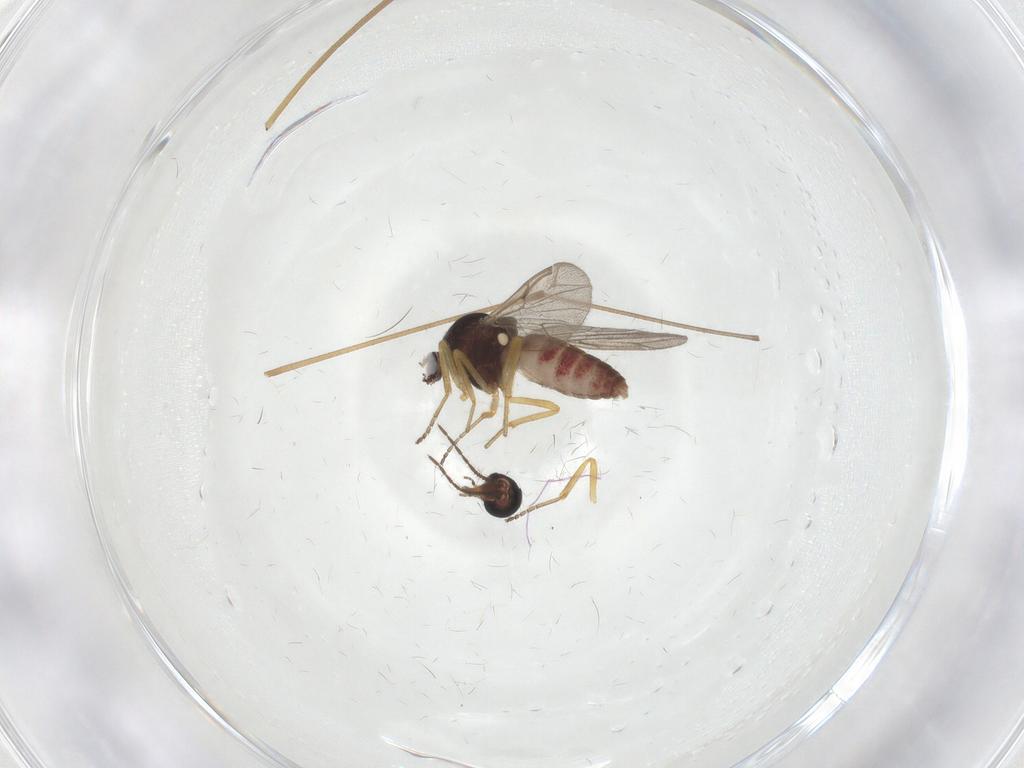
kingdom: Animalia
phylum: Arthropoda
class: Insecta
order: Diptera
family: Ceratopogonidae
